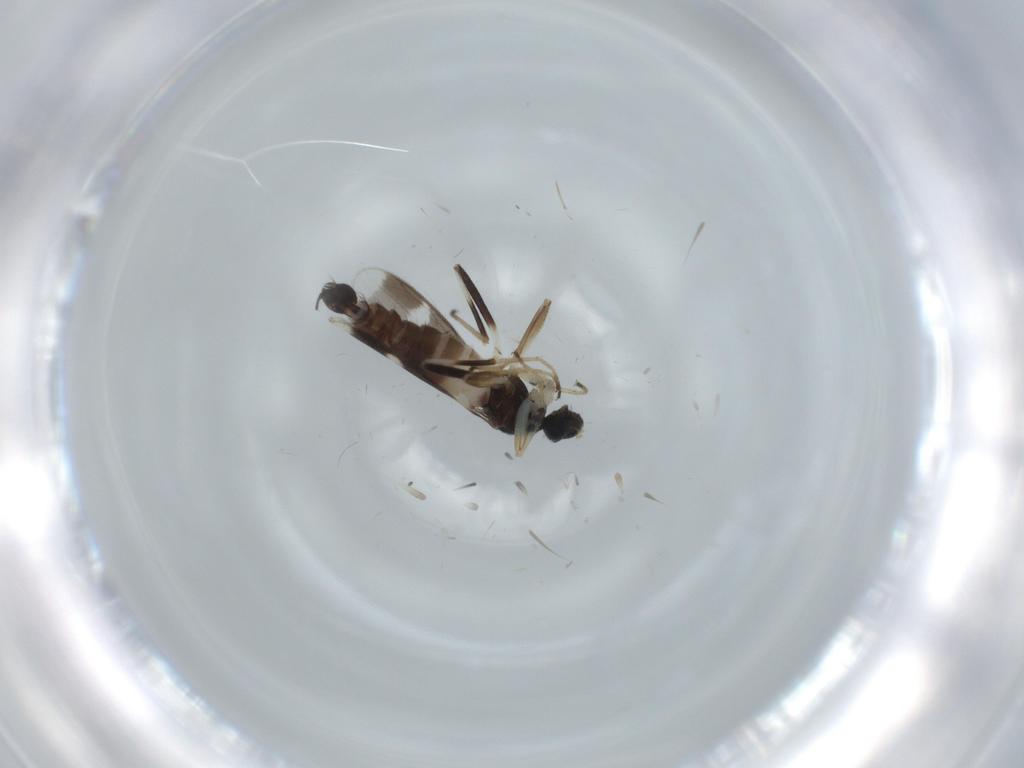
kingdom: Animalia
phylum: Arthropoda
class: Insecta
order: Diptera
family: Hybotidae
